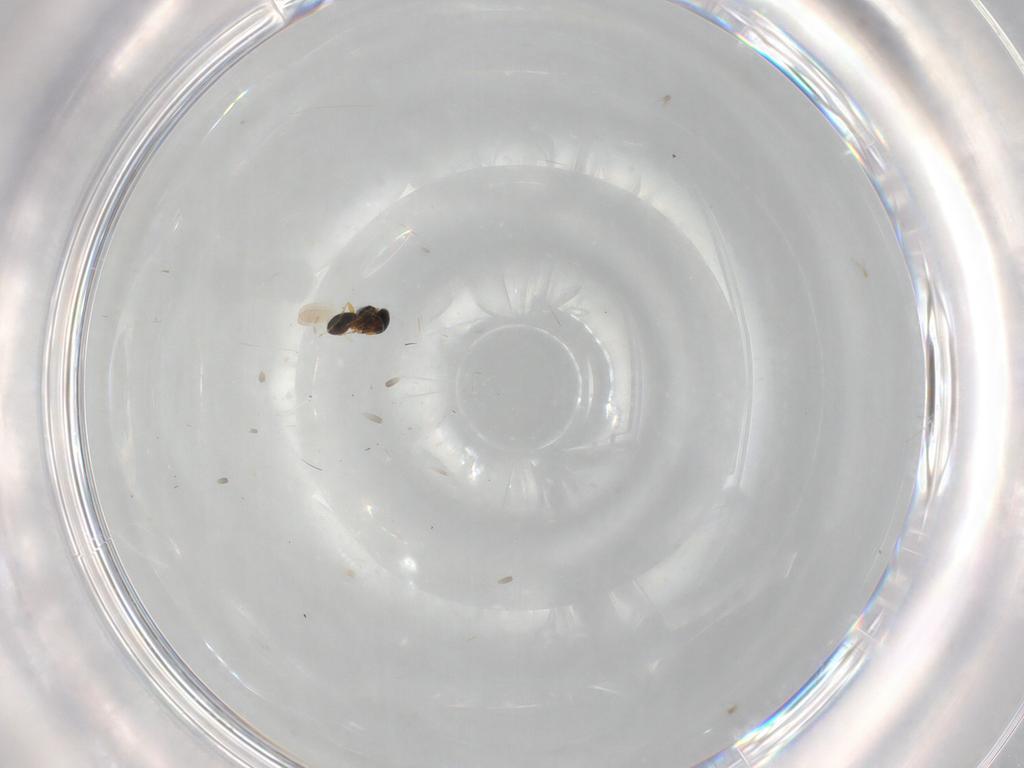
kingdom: Animalia
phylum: Arthropoda
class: Insecta
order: Hymenoptera
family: Platygastridae
